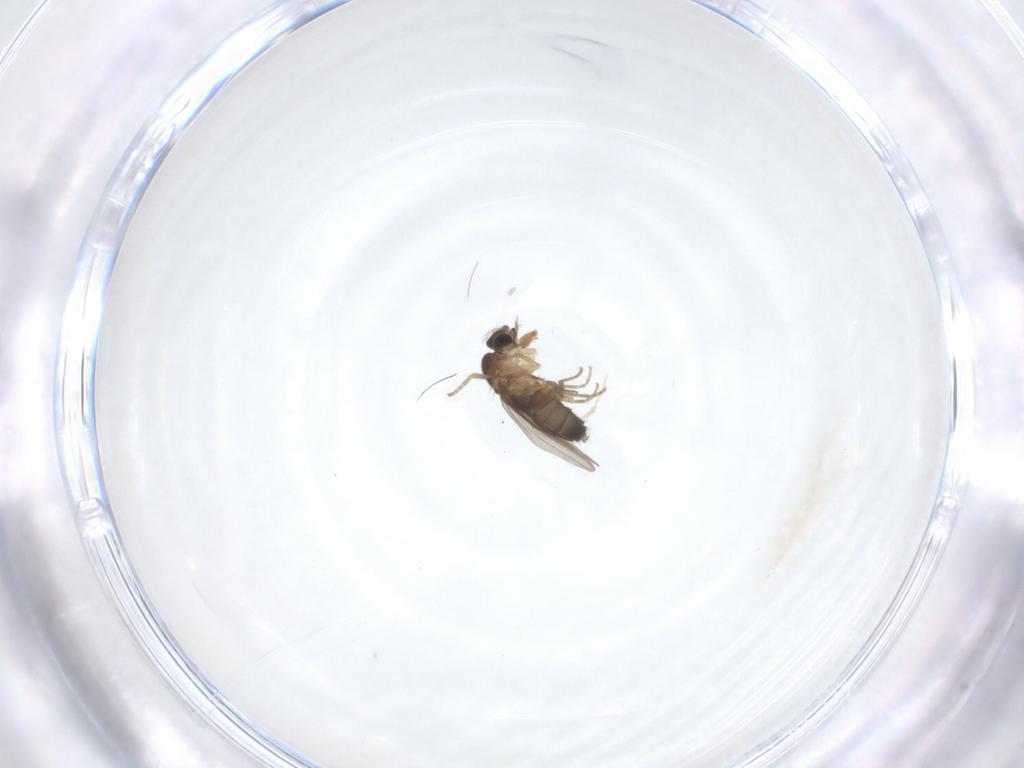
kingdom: Animalia
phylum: Arthropoda
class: Insecta
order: Diptera
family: Phoridae
